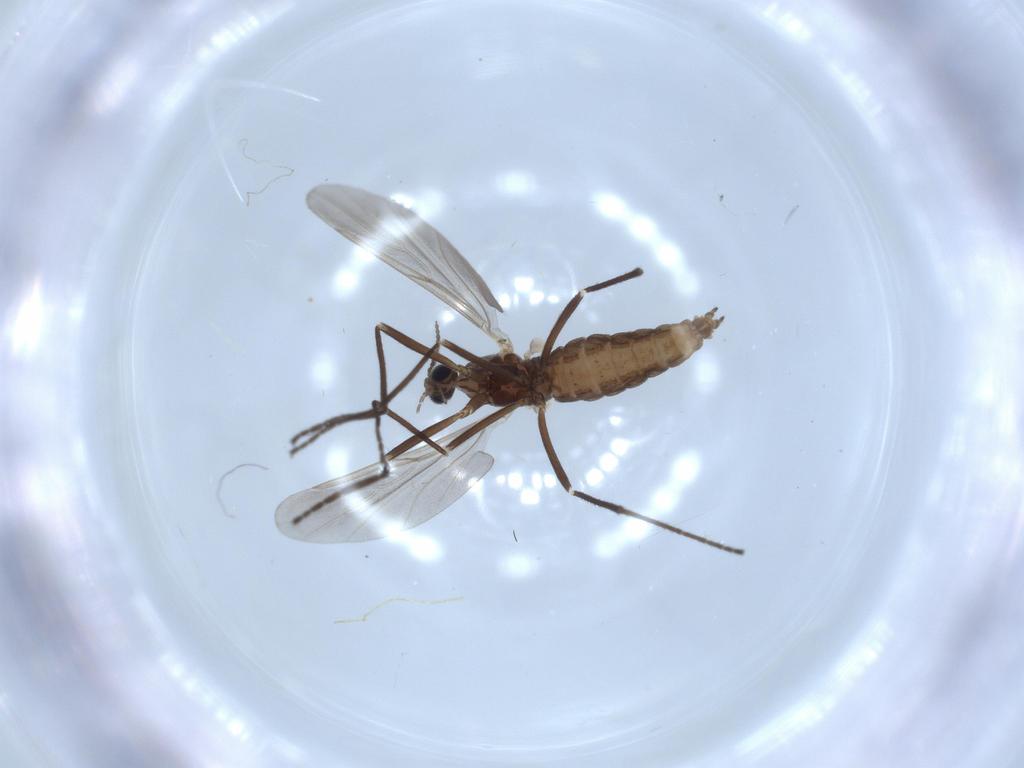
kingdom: Animalia
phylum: Arthropoda
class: Insecta
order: Diptera
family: Cecidomyiidae
